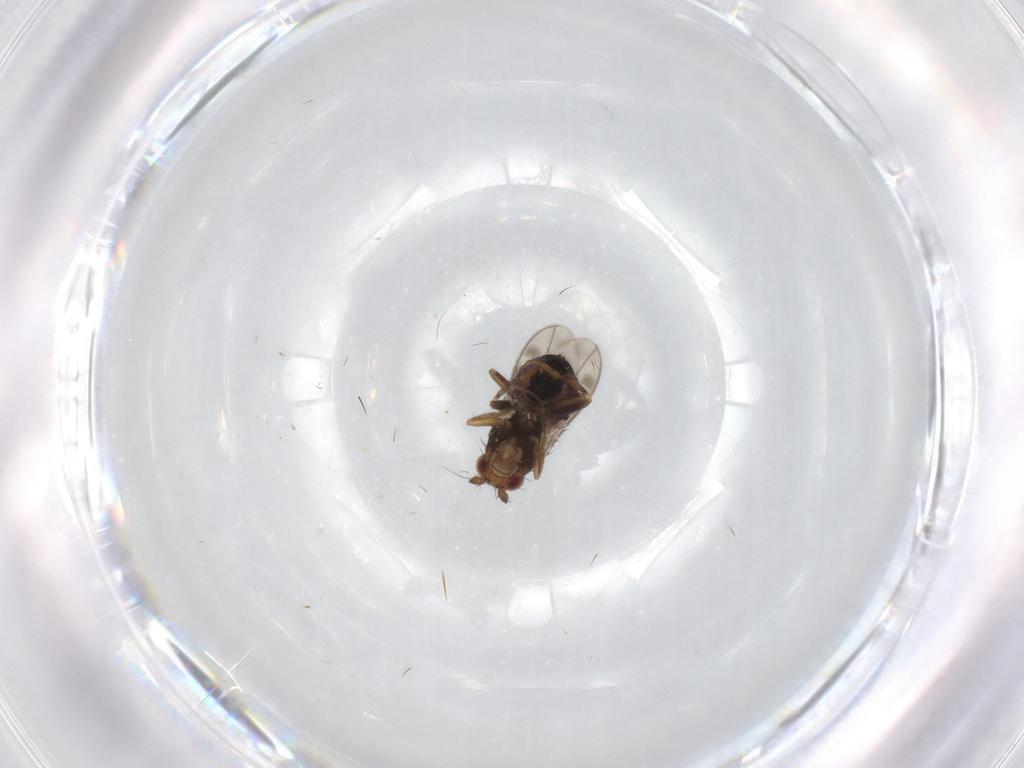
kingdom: Animalia
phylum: Arthropoda
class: Insecta
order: Diptera
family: Sphaeroceridae
